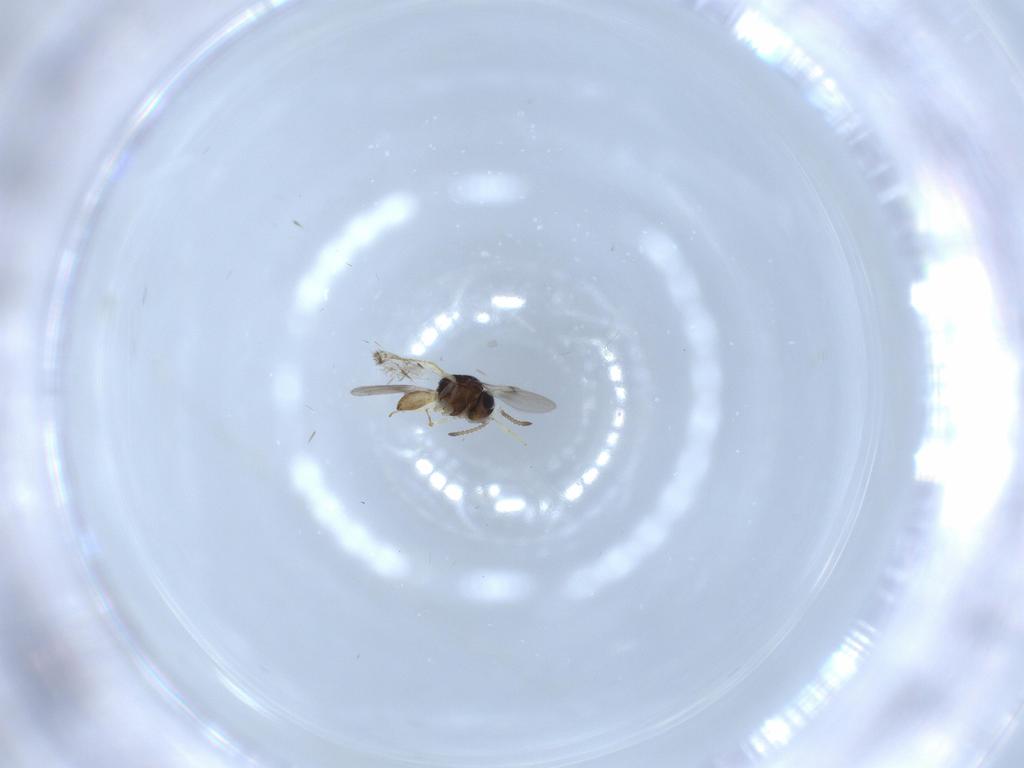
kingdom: Animalia
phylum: Arthropoda
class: Insecta
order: Hymenoptera
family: Scelionidae
